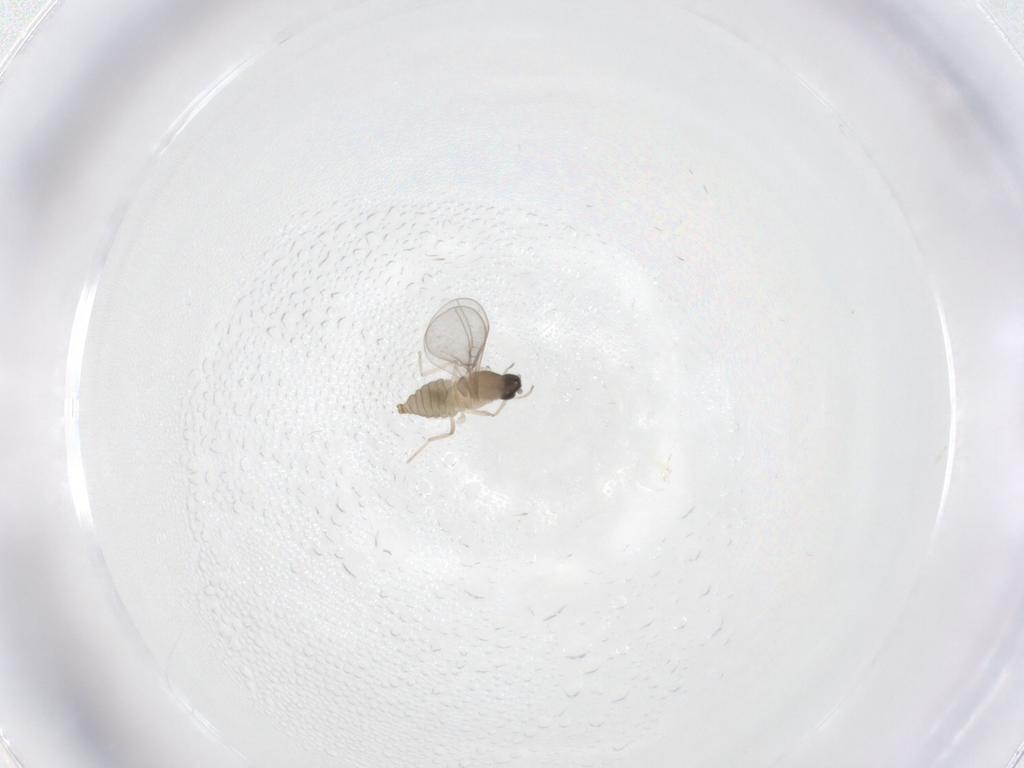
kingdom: Animalia
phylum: Arthropoda
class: Insecta
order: Diptera
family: Cecidomyiidae
